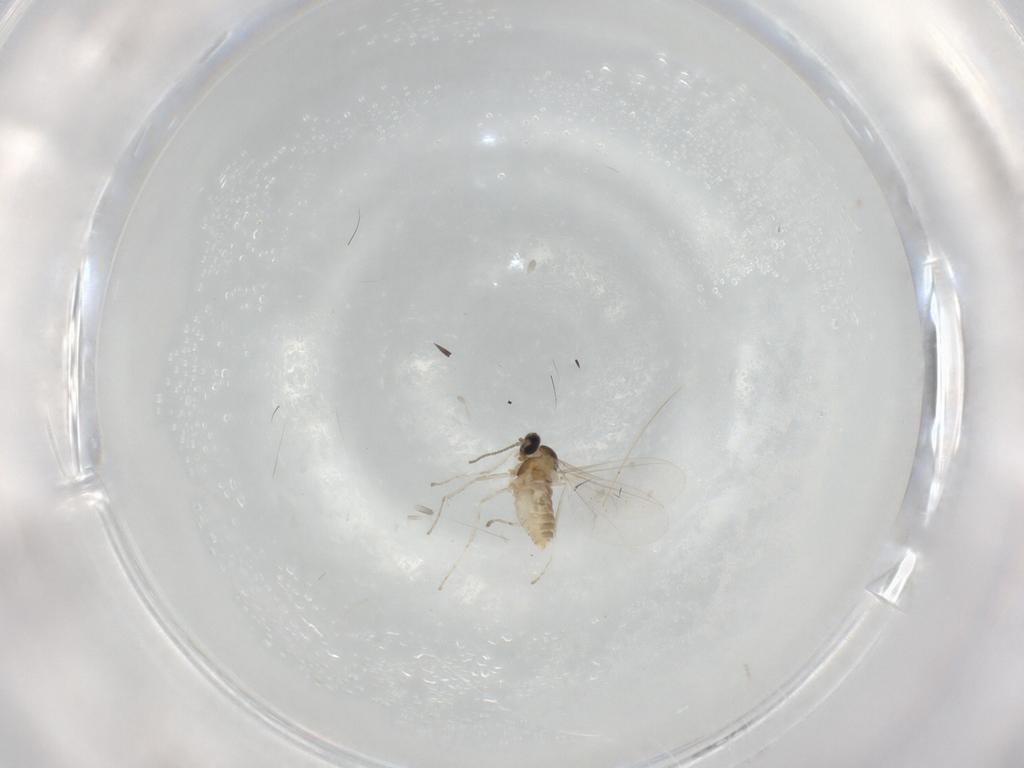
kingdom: Animalia
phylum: Arthropoda
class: Insecta
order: Diptera
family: Cecidomyiidae
